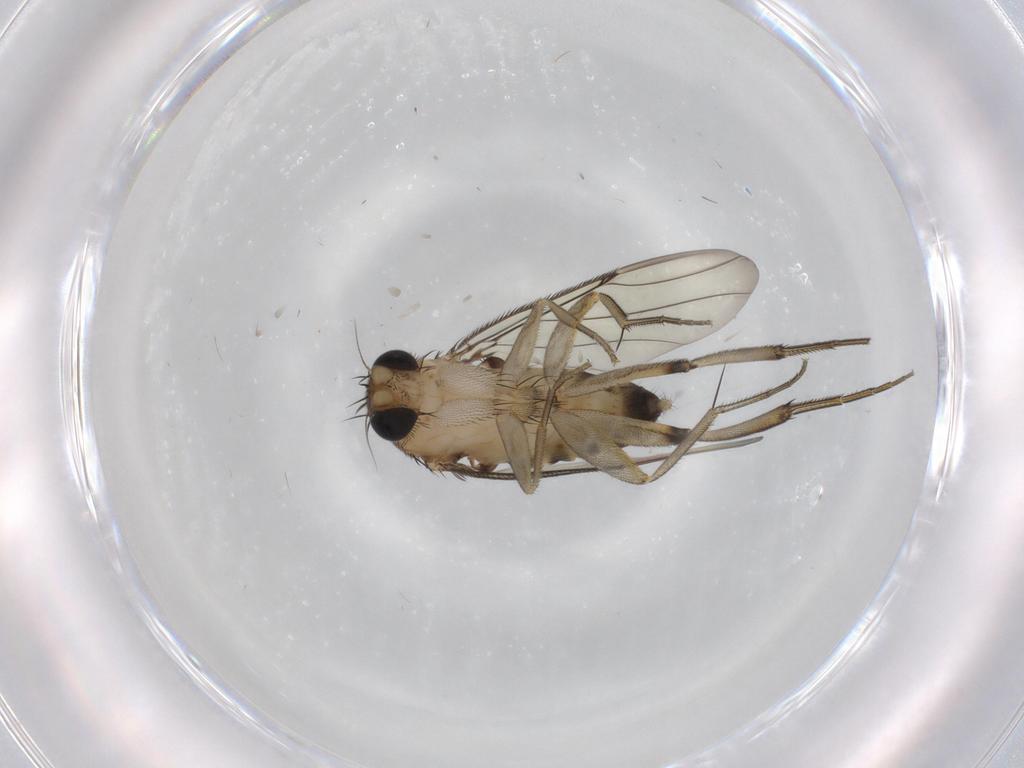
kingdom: Animalia
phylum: Arthropoda
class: Insecta
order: Diptera
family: Phoridae
